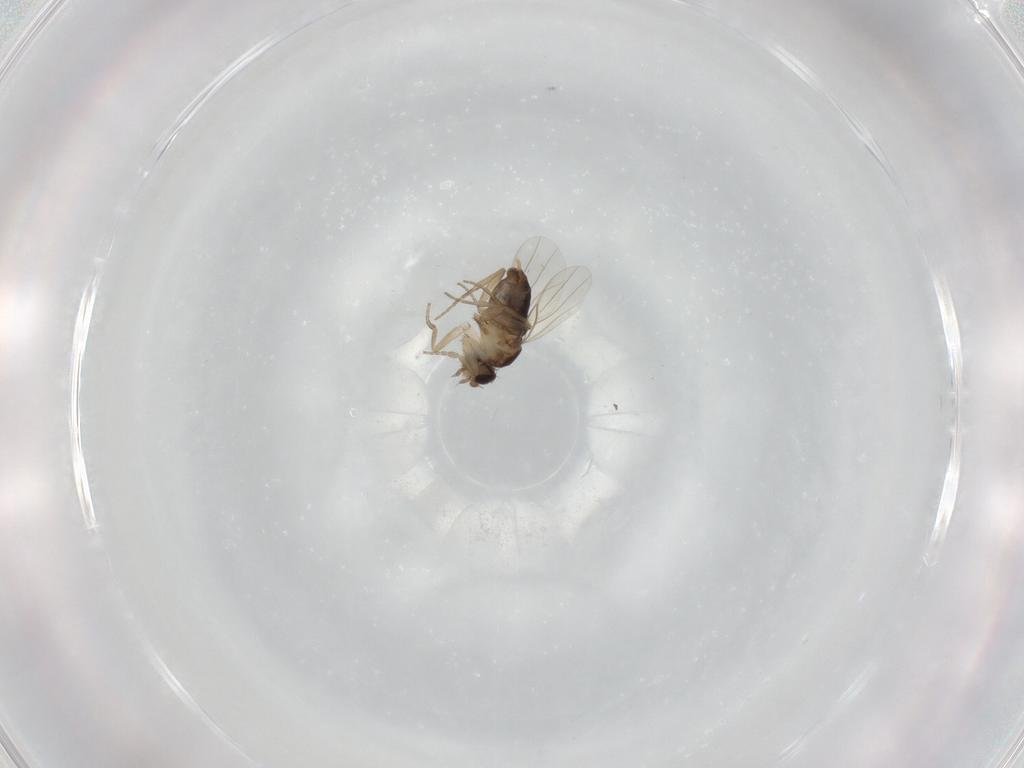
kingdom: Animalia
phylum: Arthropoda
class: Insecta
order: Diptera
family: Phoridae
